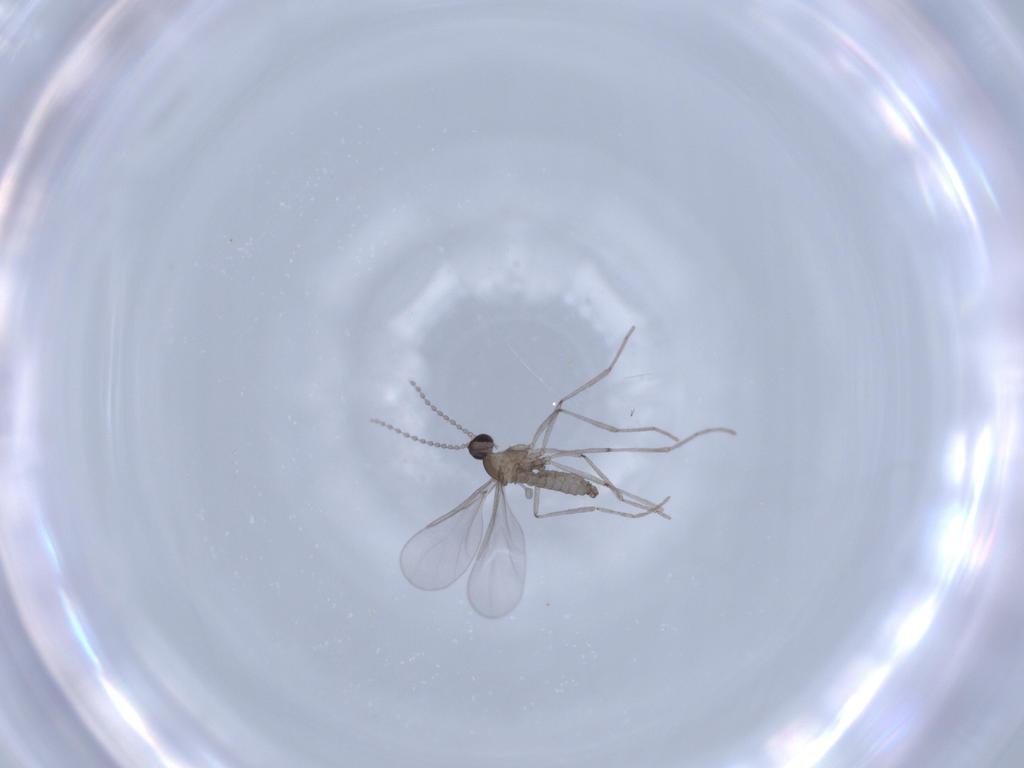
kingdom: Animalia
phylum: Arthropoda
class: Insecta
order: Diptera
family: Cecidomyiidae
